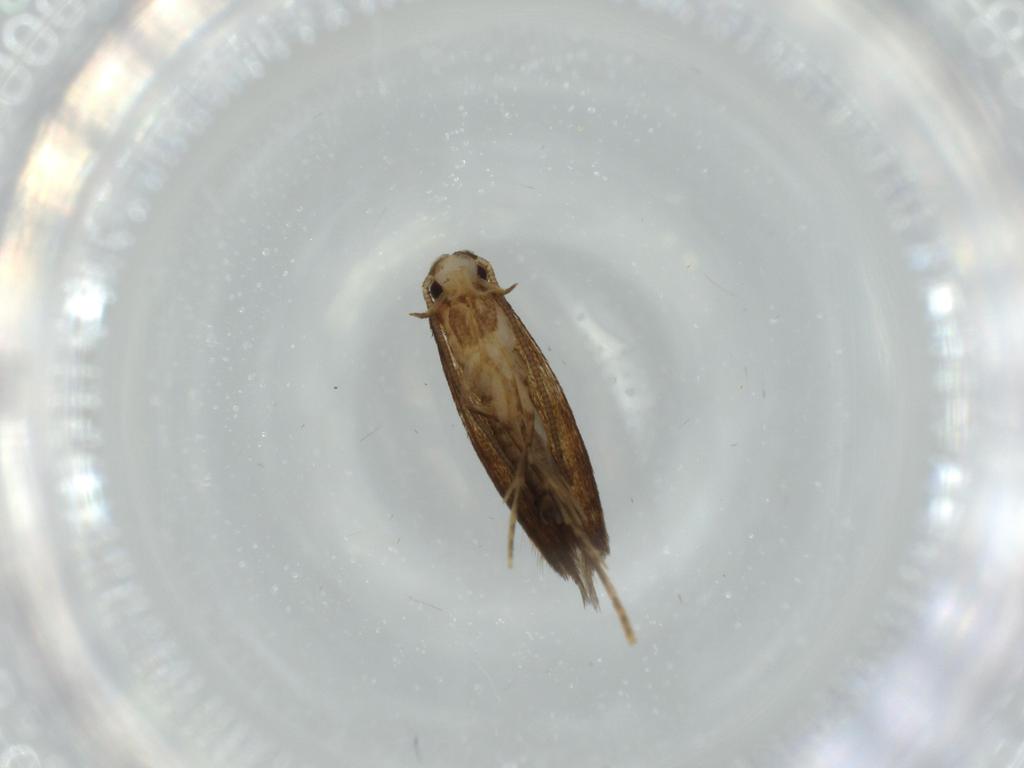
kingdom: Animalia
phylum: Arthropoda
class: Insecta
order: Lepidoptera
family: Tineidae
